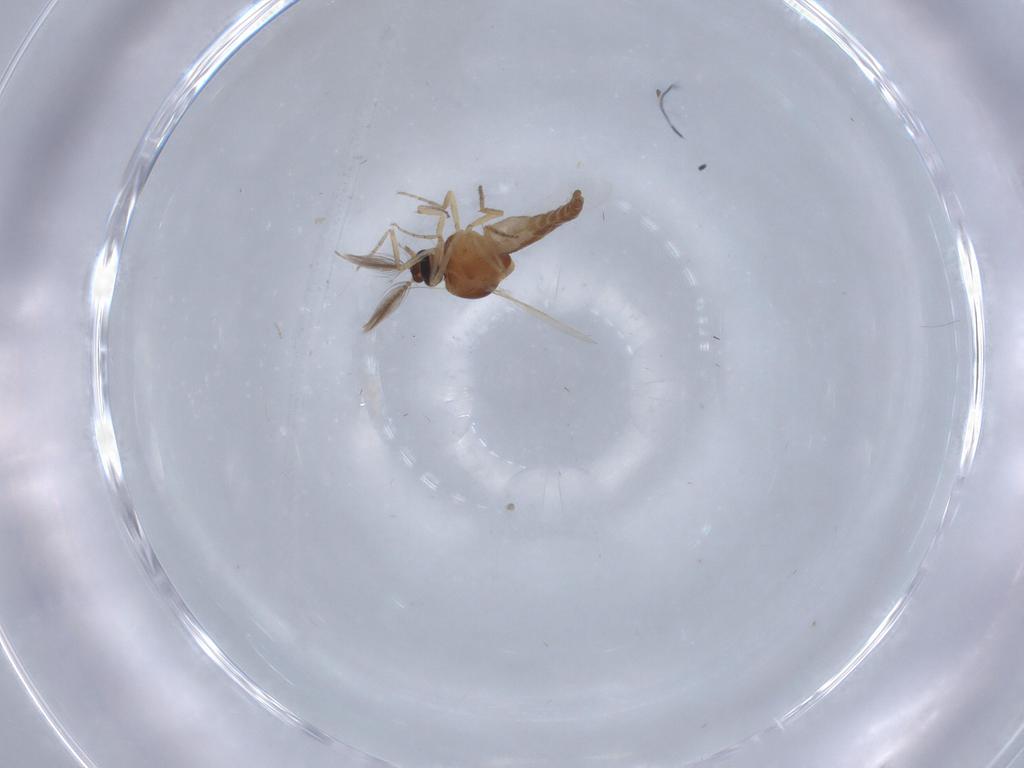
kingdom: Animalia
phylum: Arthropoda
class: Insecta
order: Diptera
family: Ceratopogonidae
